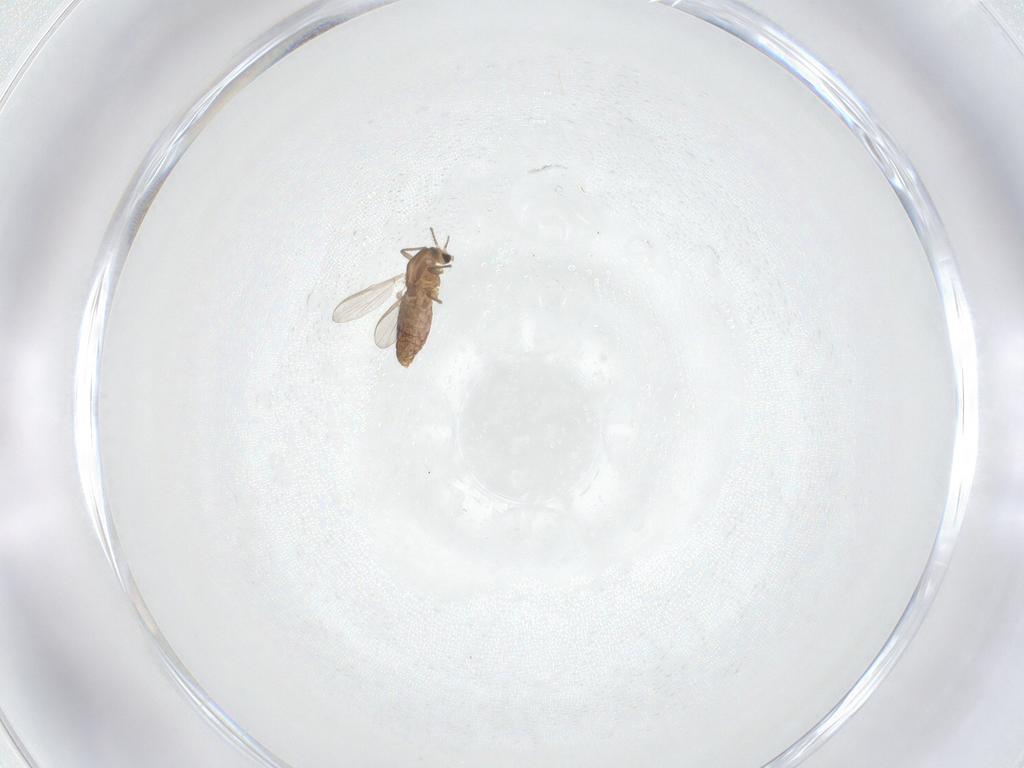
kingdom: Animalia
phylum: Arthropoda
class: Insecta
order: Diptera
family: Chironomidae
